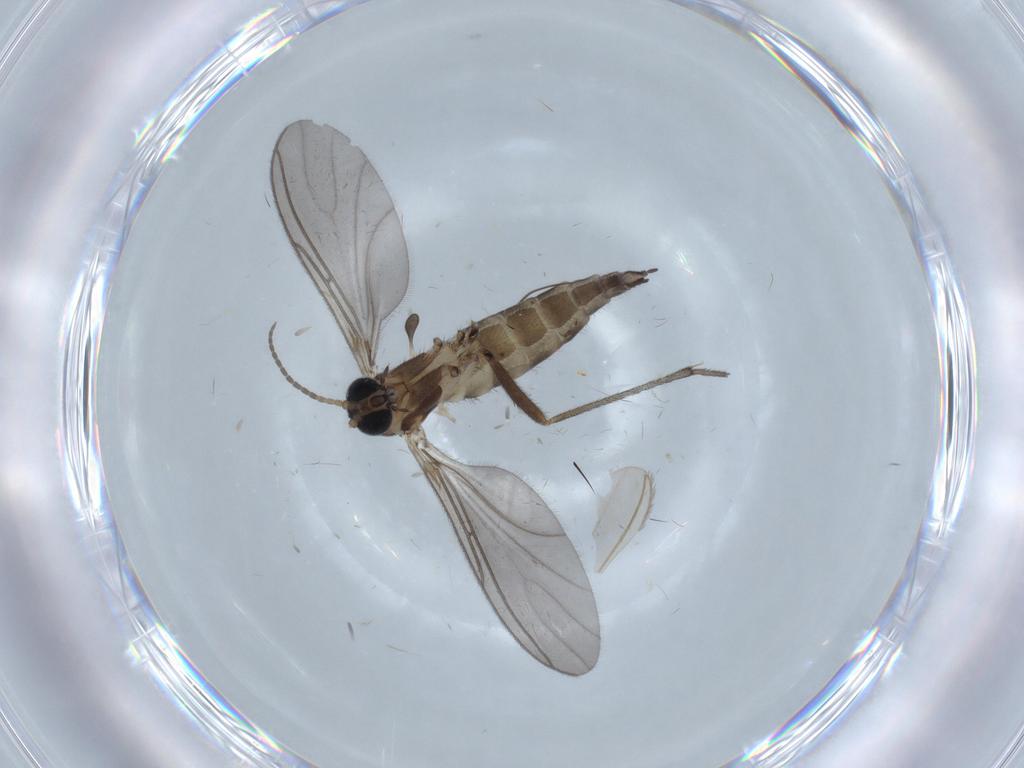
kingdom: Animalia
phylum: Arthropoda
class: Insecta
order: Diptera
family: Sciaridae
